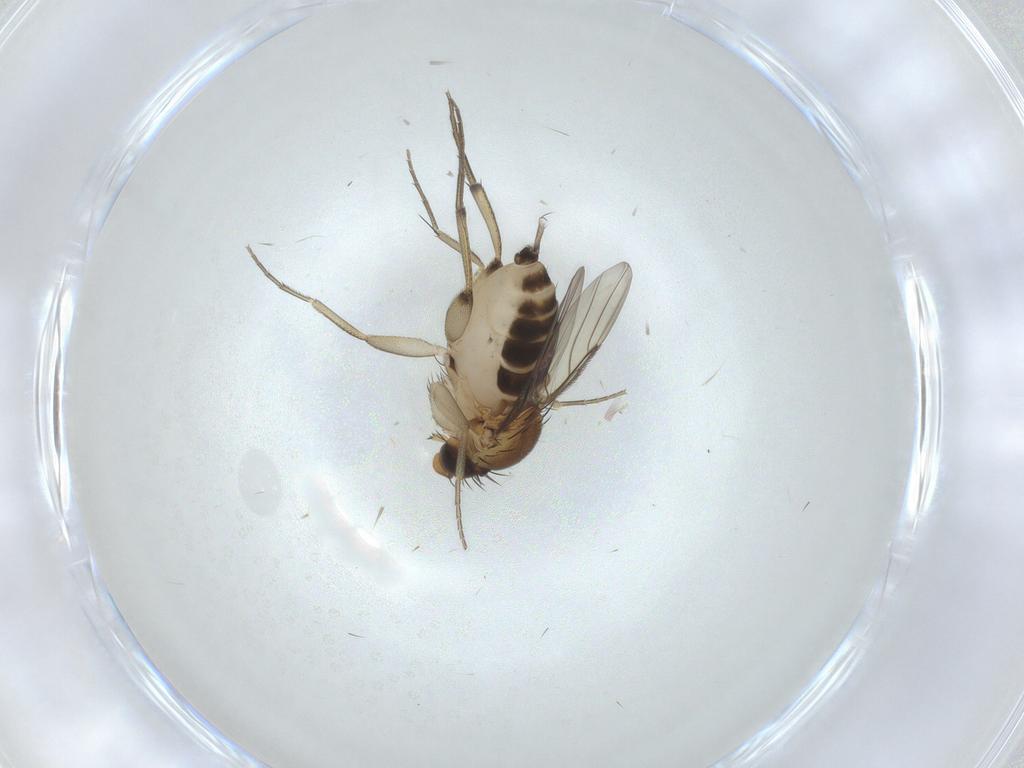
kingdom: Animalia
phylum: Arthropoda
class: Insecta
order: Diptera
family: Phoridae
